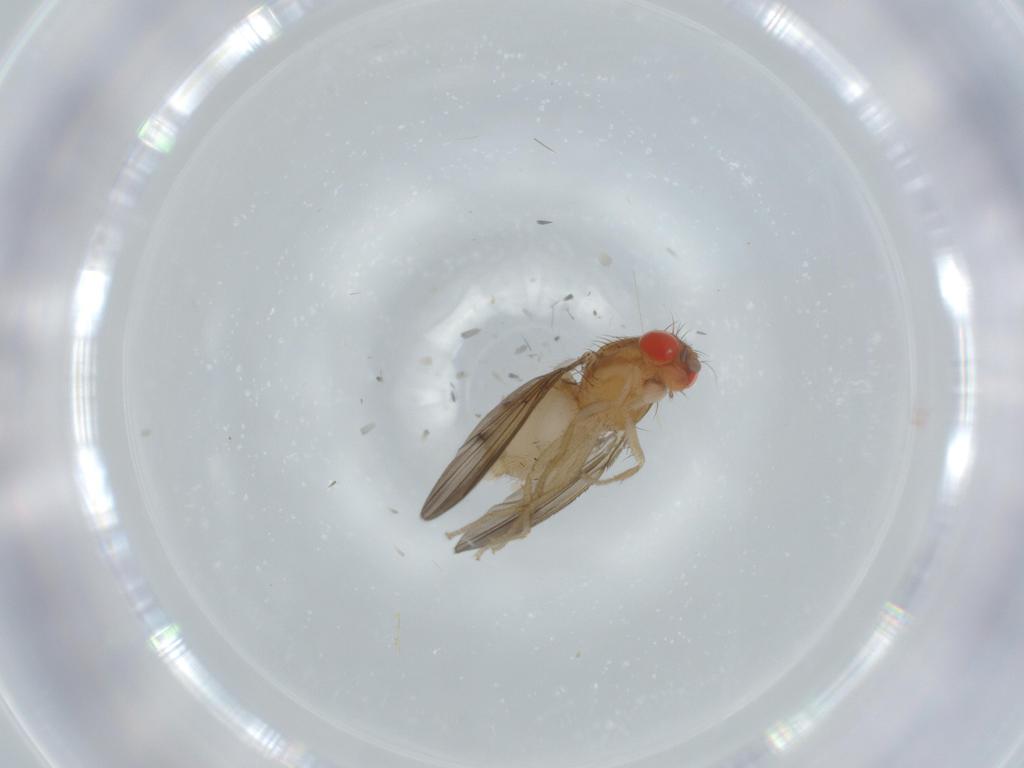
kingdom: Animalia
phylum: Arthropoda
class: Insecta
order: Diptera
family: Drosophilidae
